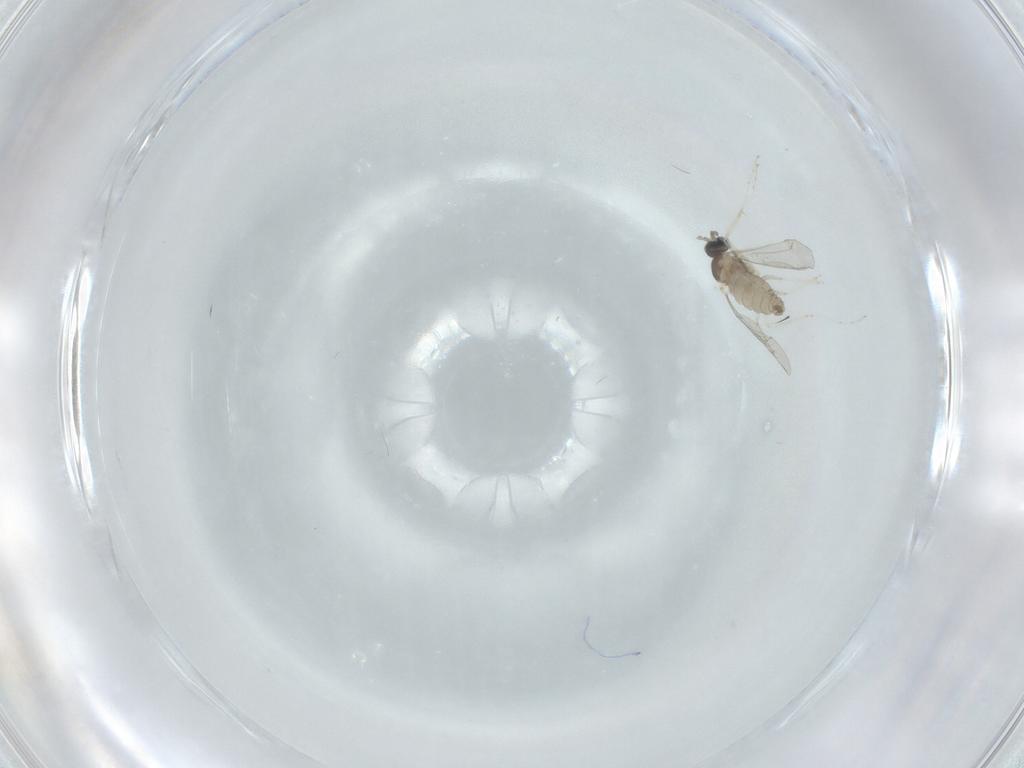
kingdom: Animalia
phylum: Arthropoda
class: Insecta
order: Diptera
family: Cecidomyiidae
